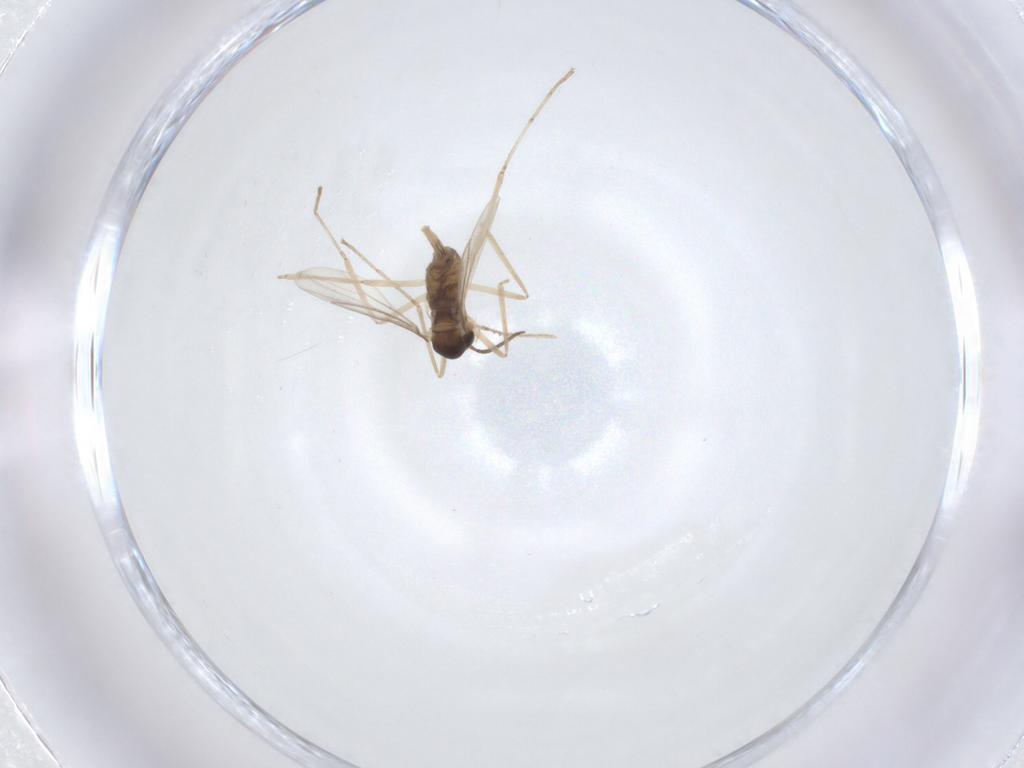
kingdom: Animalia
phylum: Arthropoda
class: Insecta
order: Diptera
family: Cecidomyiidae
